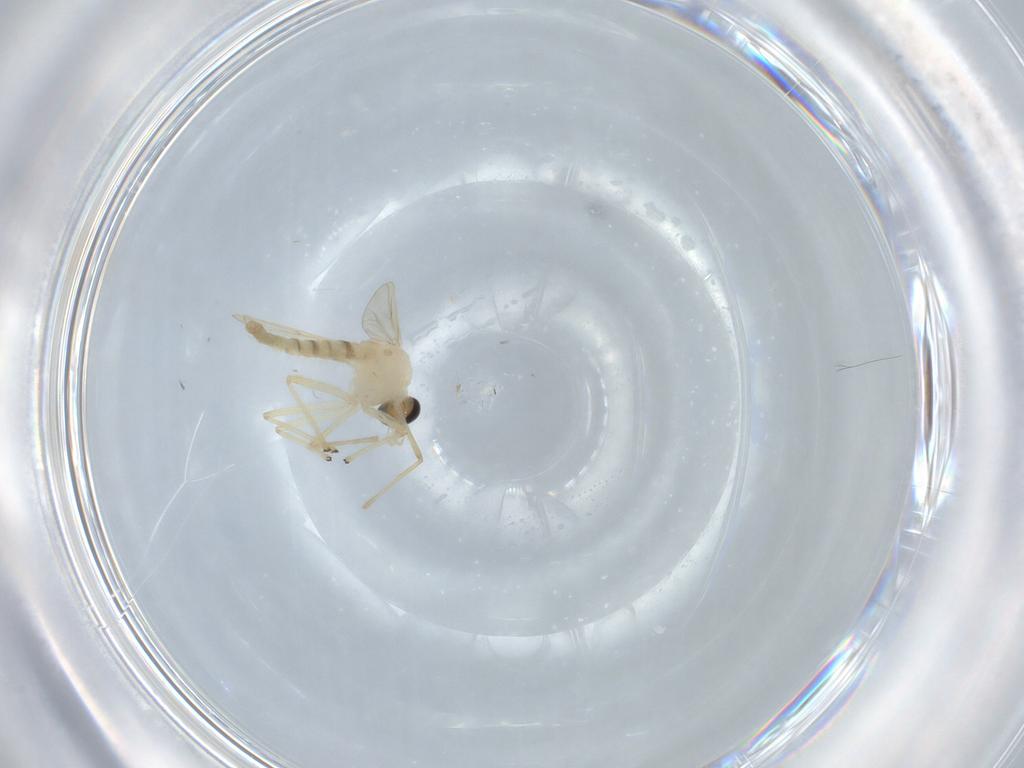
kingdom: Animalia
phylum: Arthropoda
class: Insecta
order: Diptera
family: Chironomidae
